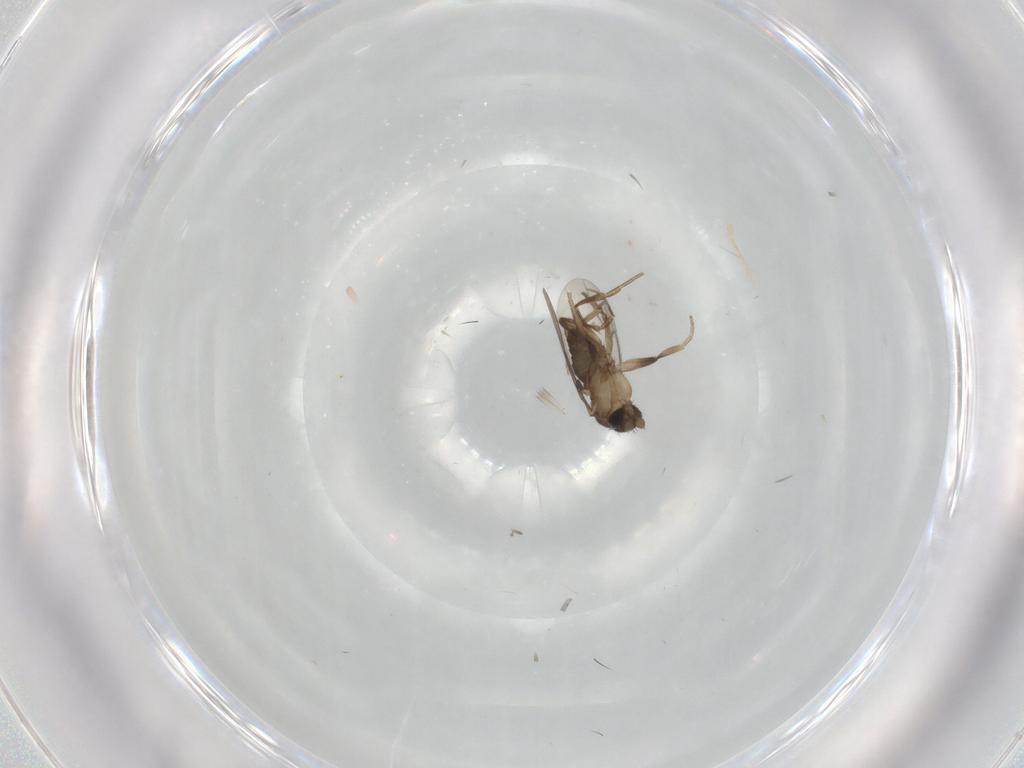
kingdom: Animalia
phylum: Arthropoda
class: Insecta
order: Diptera
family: Phoridae
